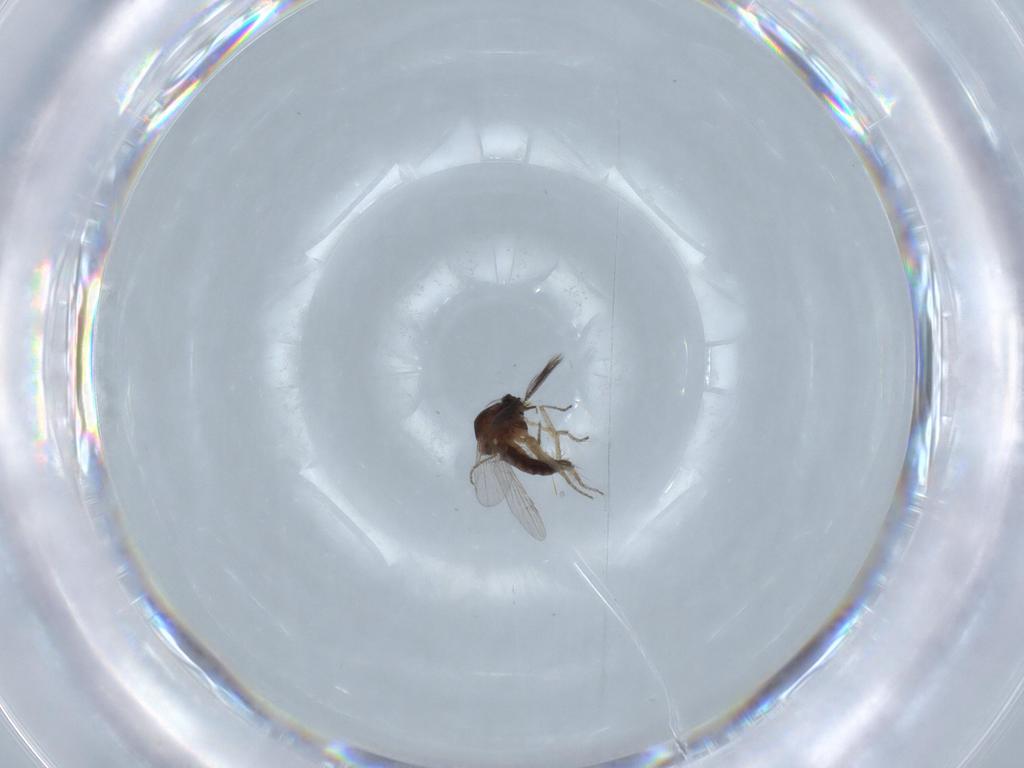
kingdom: Animalia
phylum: Arthropoda
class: Insecta
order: Diptera
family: Ceratopogonidae
